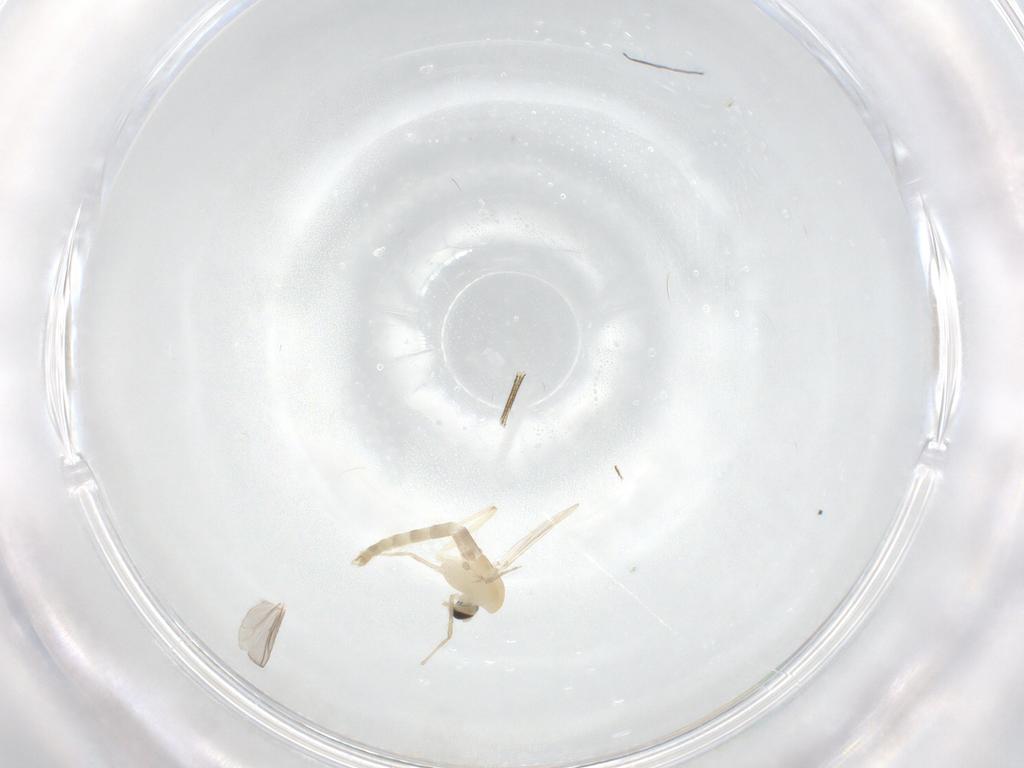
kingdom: Animalia
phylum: Arthropoda
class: Insecta
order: Diptera
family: Chironomidae
